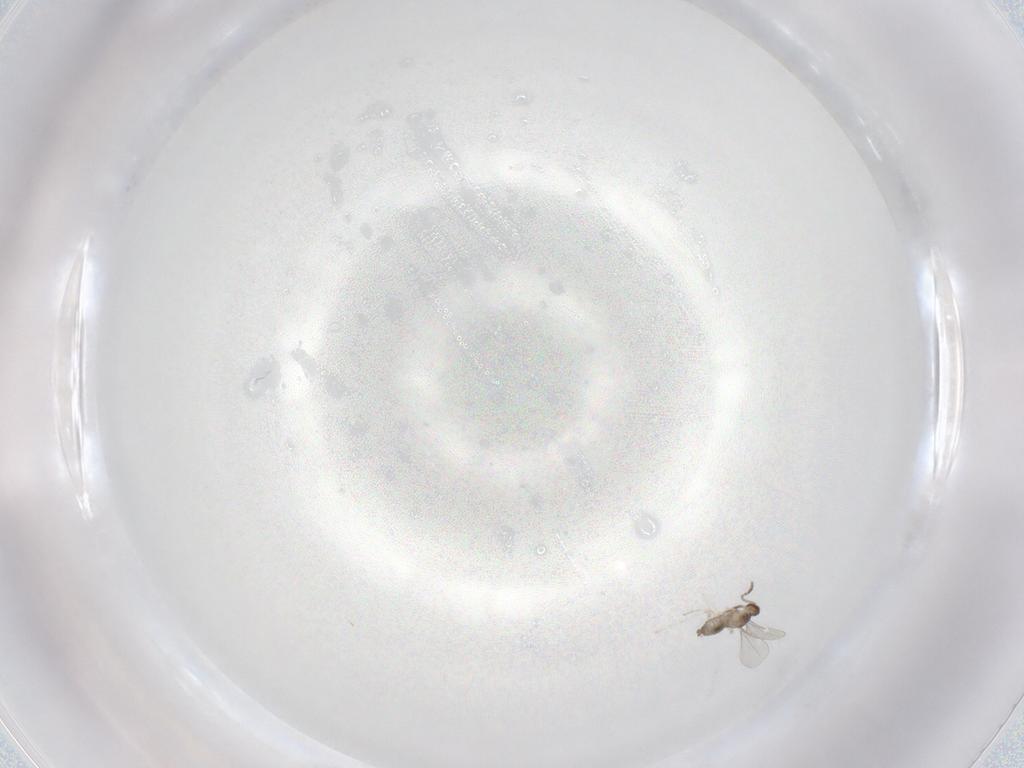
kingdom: Animalia
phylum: Arthropoda
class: Insecta
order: Diptera
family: Cecidomyiidae
